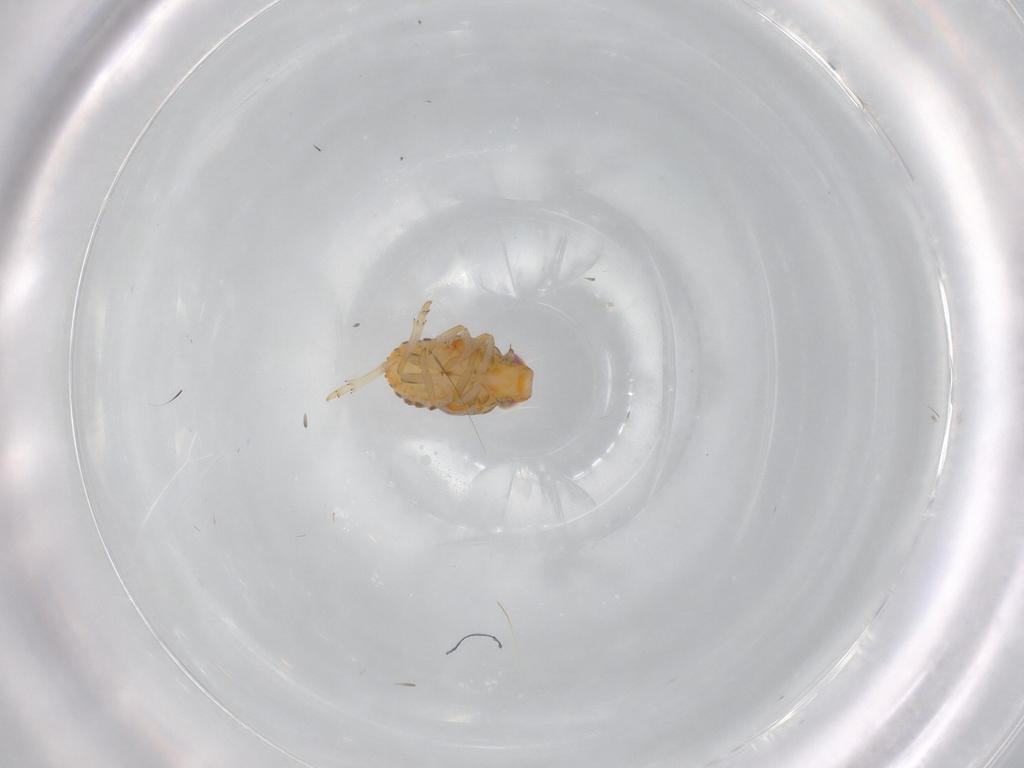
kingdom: Animalia
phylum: Arthropoda
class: Insecta
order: Hemiptera
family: Issidae
